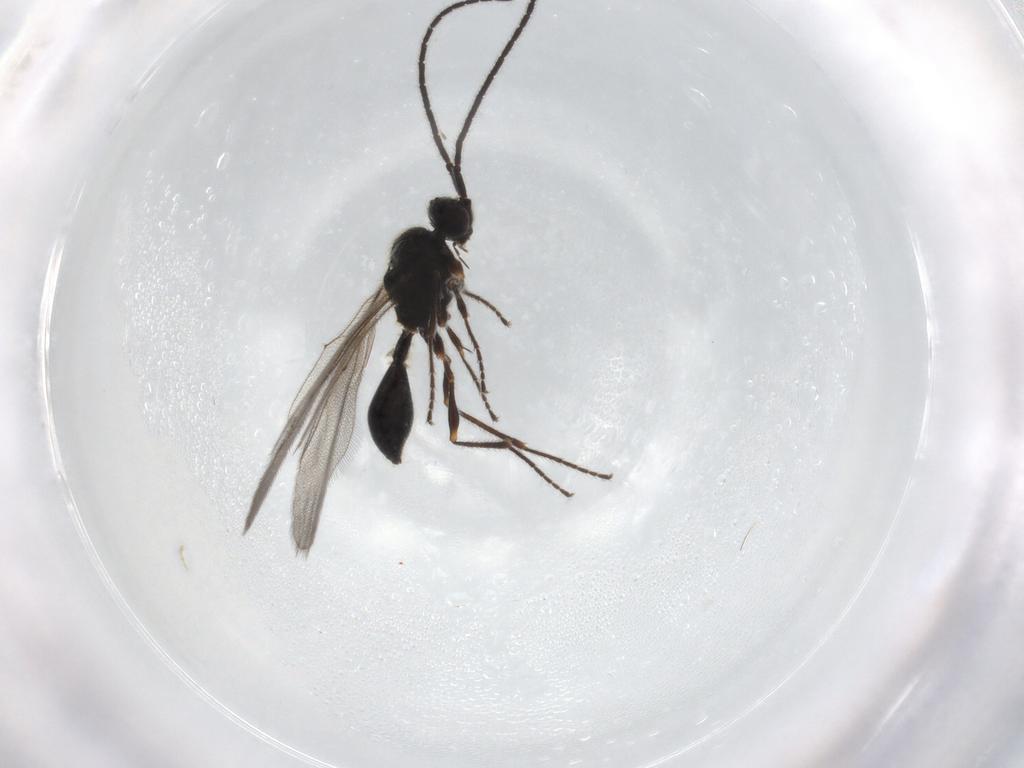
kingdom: Animalia
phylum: Arthropoda
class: Insecta
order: Hymenoptera
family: Diapriidae
